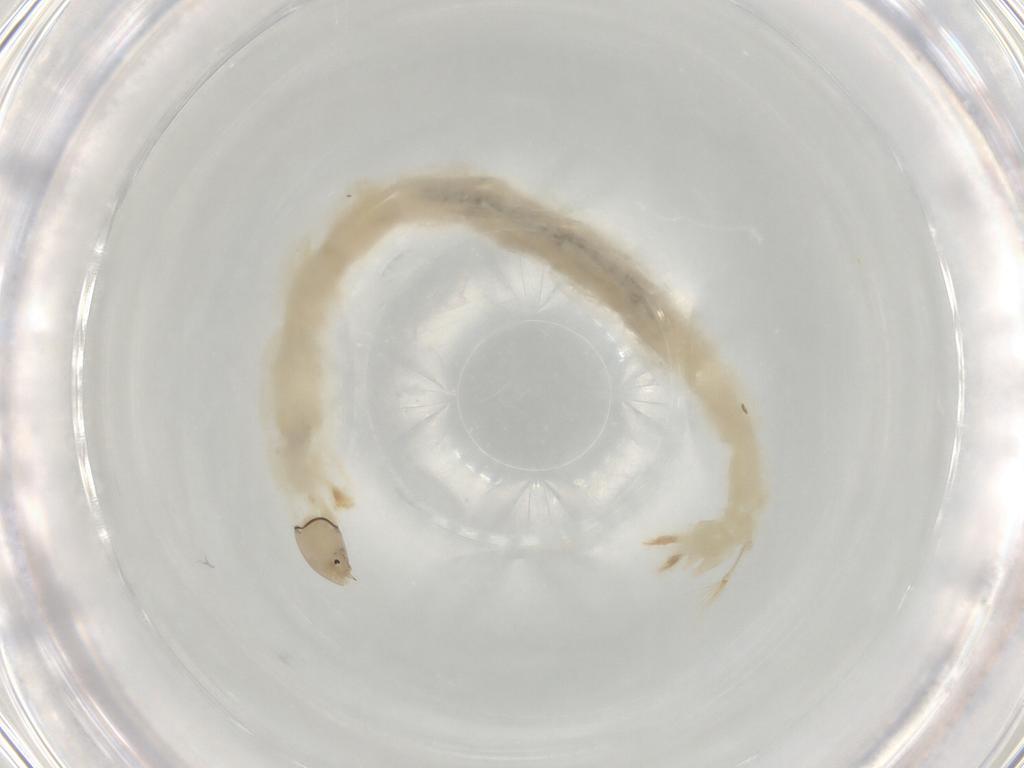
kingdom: Animalia
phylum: Arthropoda
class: Insecta
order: Diptera
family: Chironomidae
